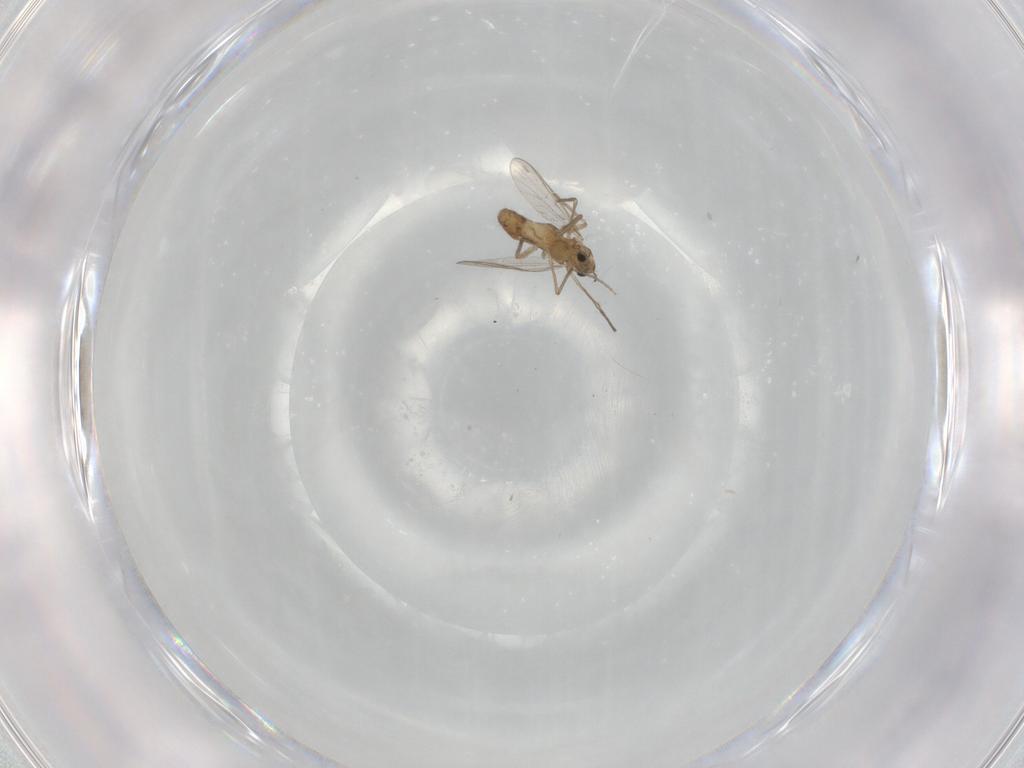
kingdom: Animalia
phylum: Arthropoda
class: Insecta
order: Diptera
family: Chironomidae
